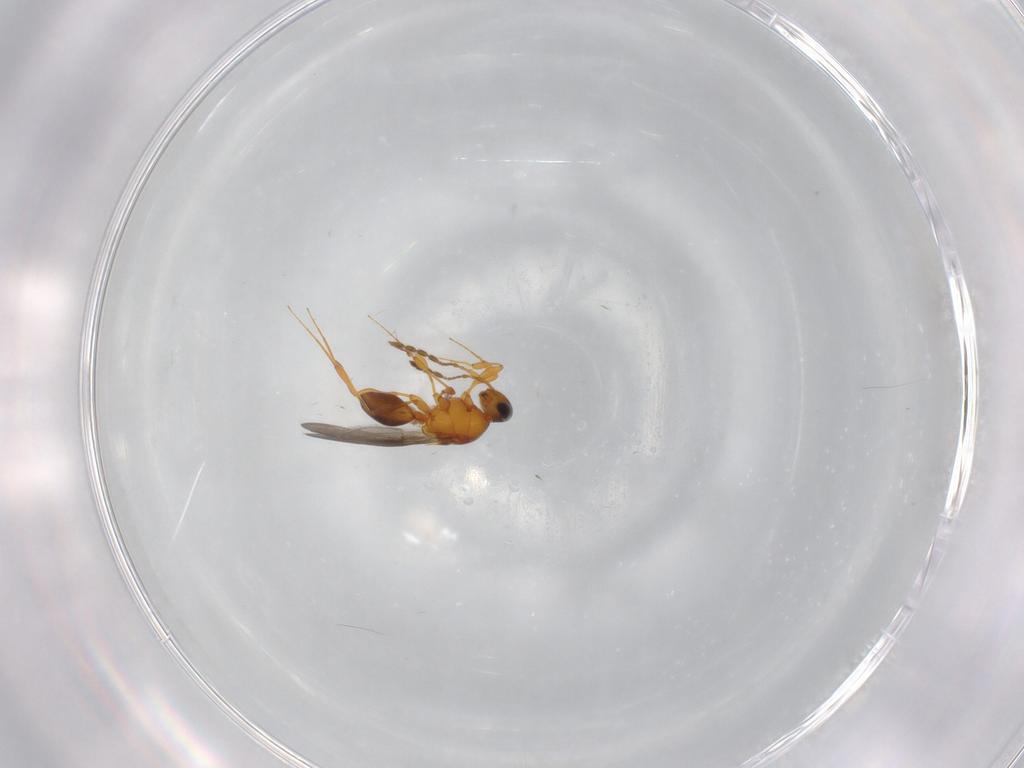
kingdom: Animalia
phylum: Arthropoda
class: Insecta
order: Hymenoptera
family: Platygastridae
